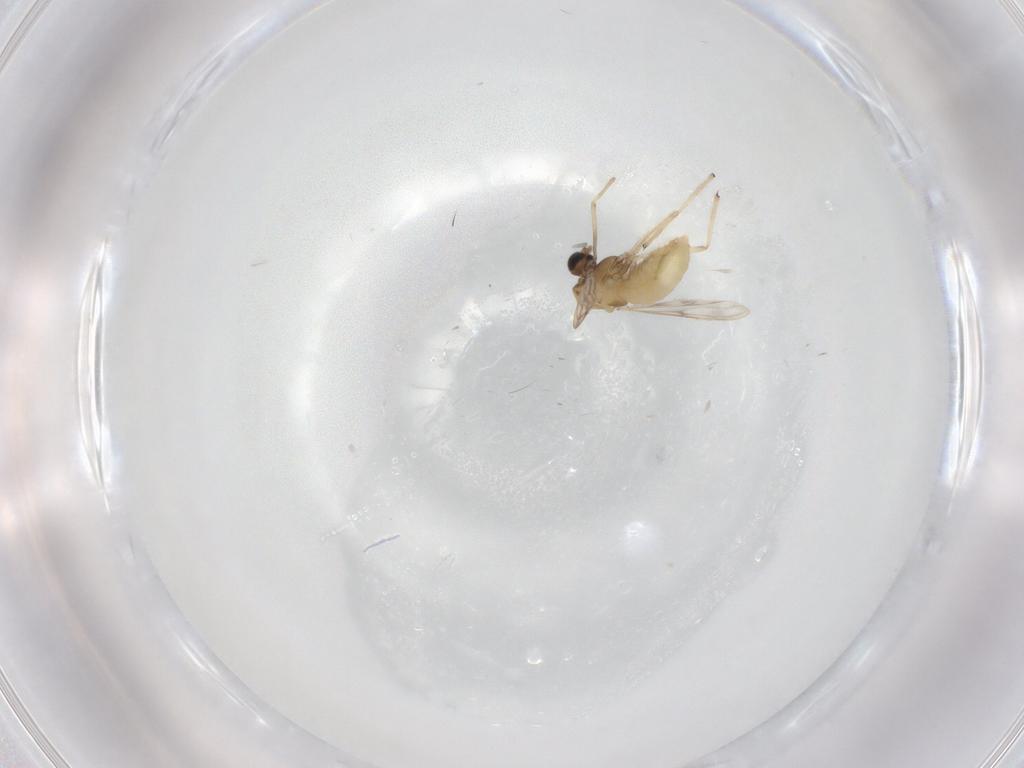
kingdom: Animalia
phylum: Arthropoda
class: Insecta
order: Diptera
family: Chironomidae
